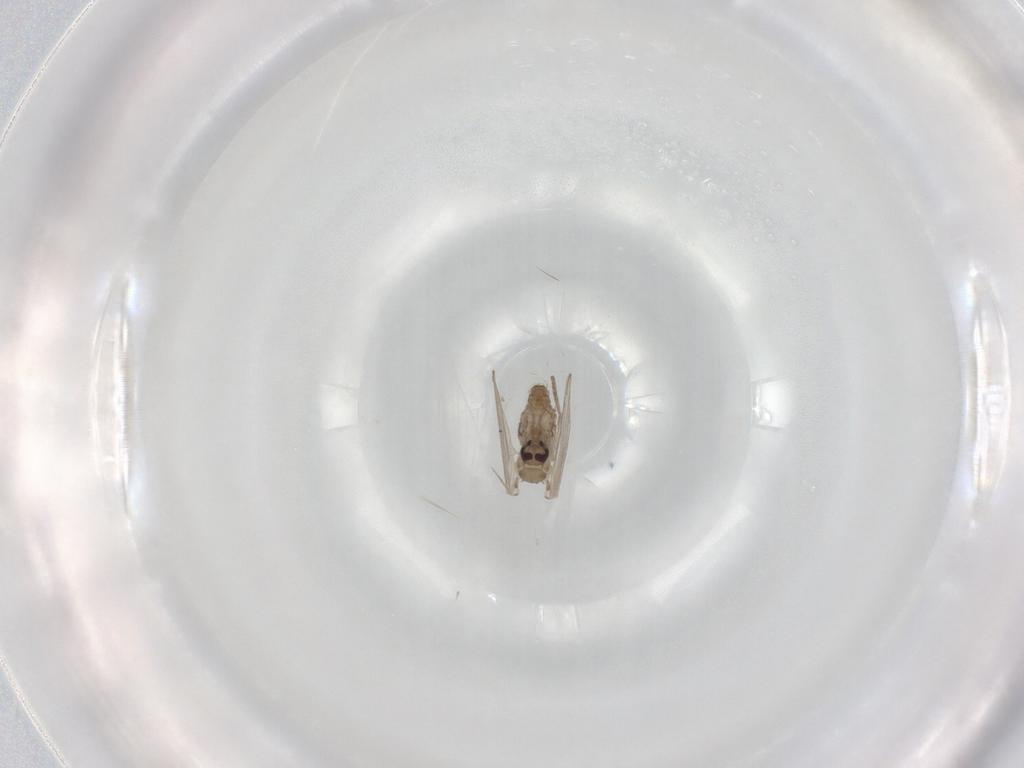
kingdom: Animalia
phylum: Arthropoda
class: Insecta
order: Diptera
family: Psychodidae
